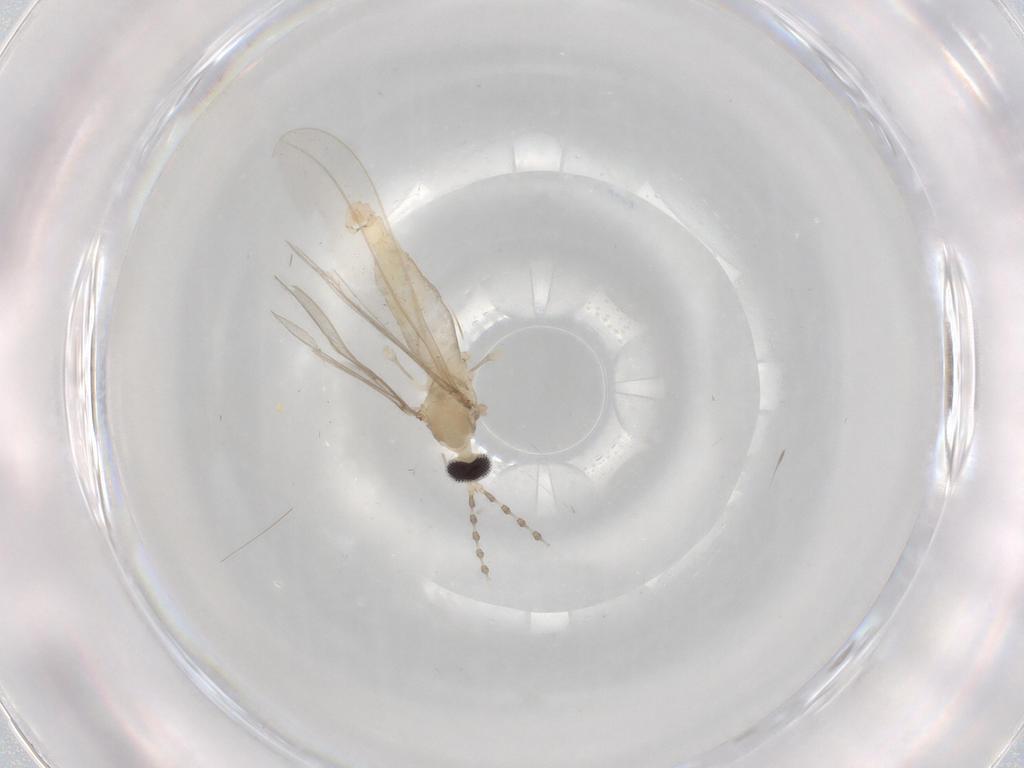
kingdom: Animalia
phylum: Arthropoda
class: Insecta
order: Diptera
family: Cecidomyiidae
